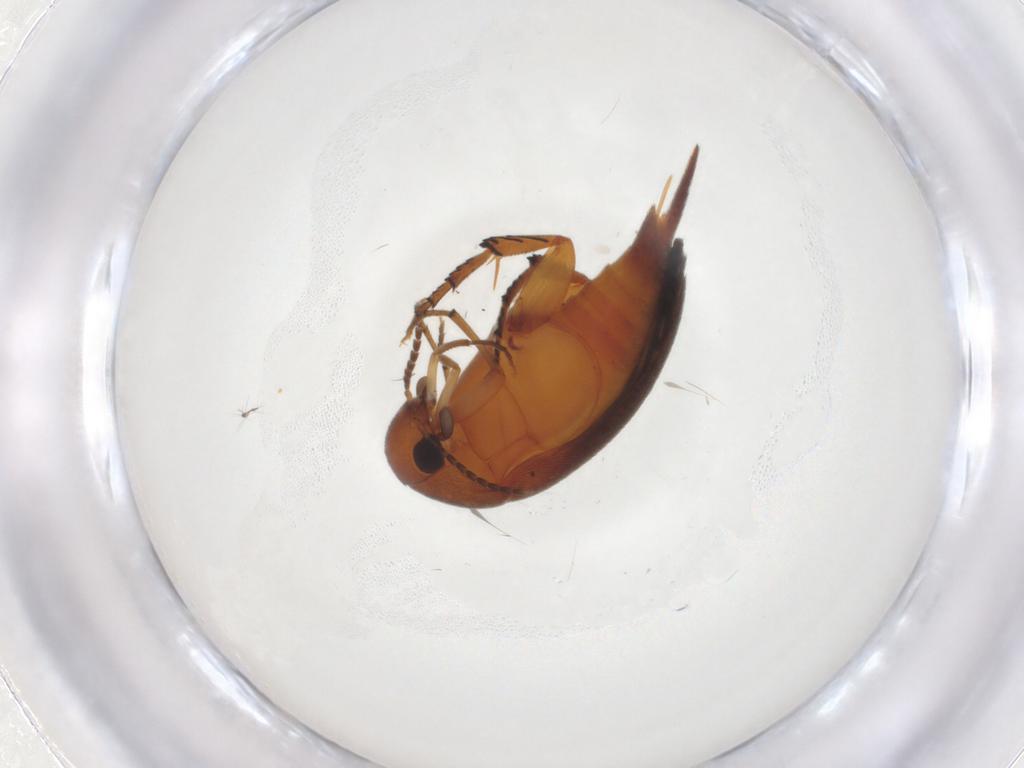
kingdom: Animalia
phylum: Arthropoda
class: Insecta
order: Coleoptera
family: Mordellidae
